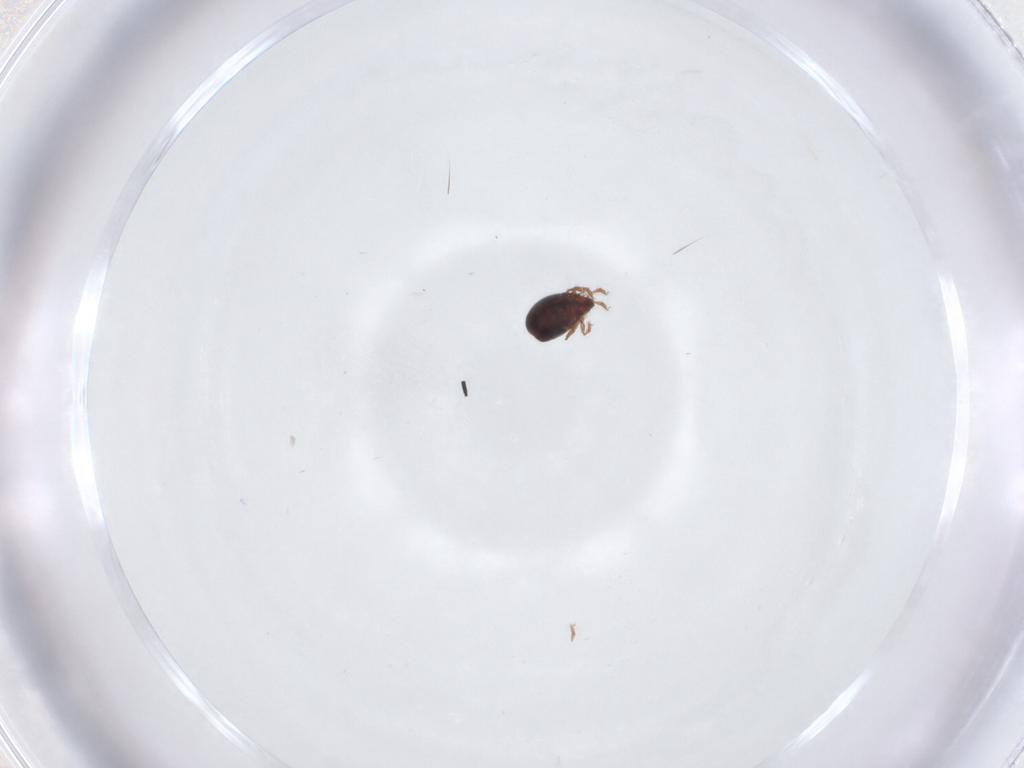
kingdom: Animalia
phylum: Arthropoda
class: Arachnida
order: Sarcoptiformes
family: Ceratozetidae
